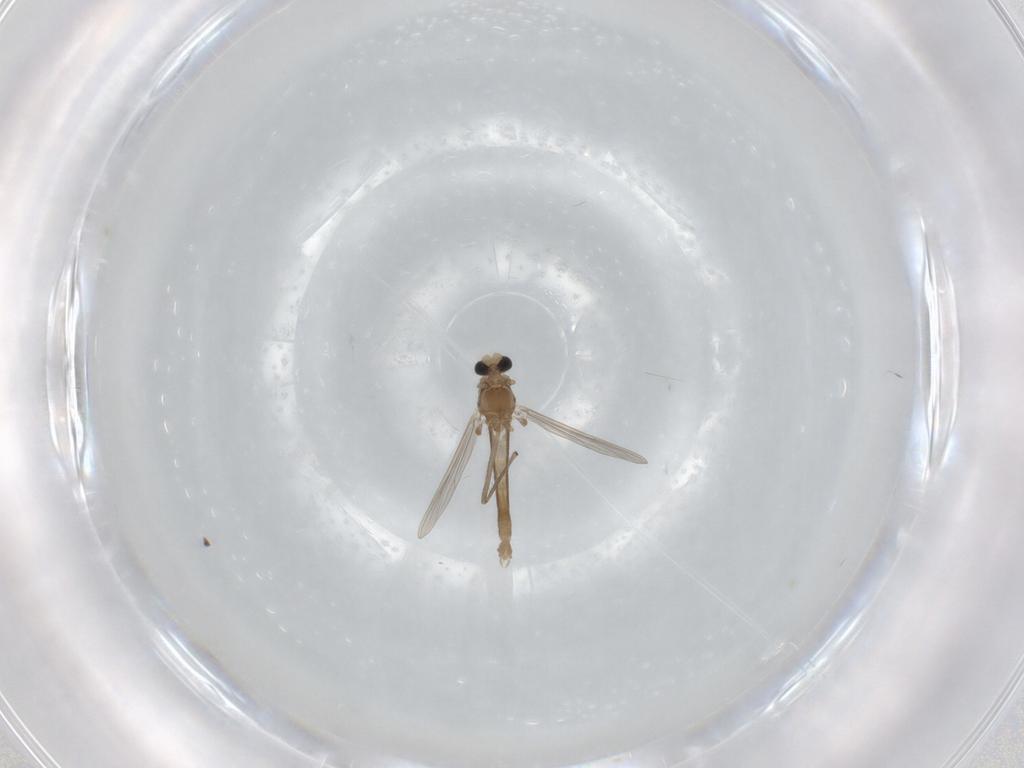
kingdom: Animalia
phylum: Arthropoda
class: Insecta
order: Diptera
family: Chironomidae
